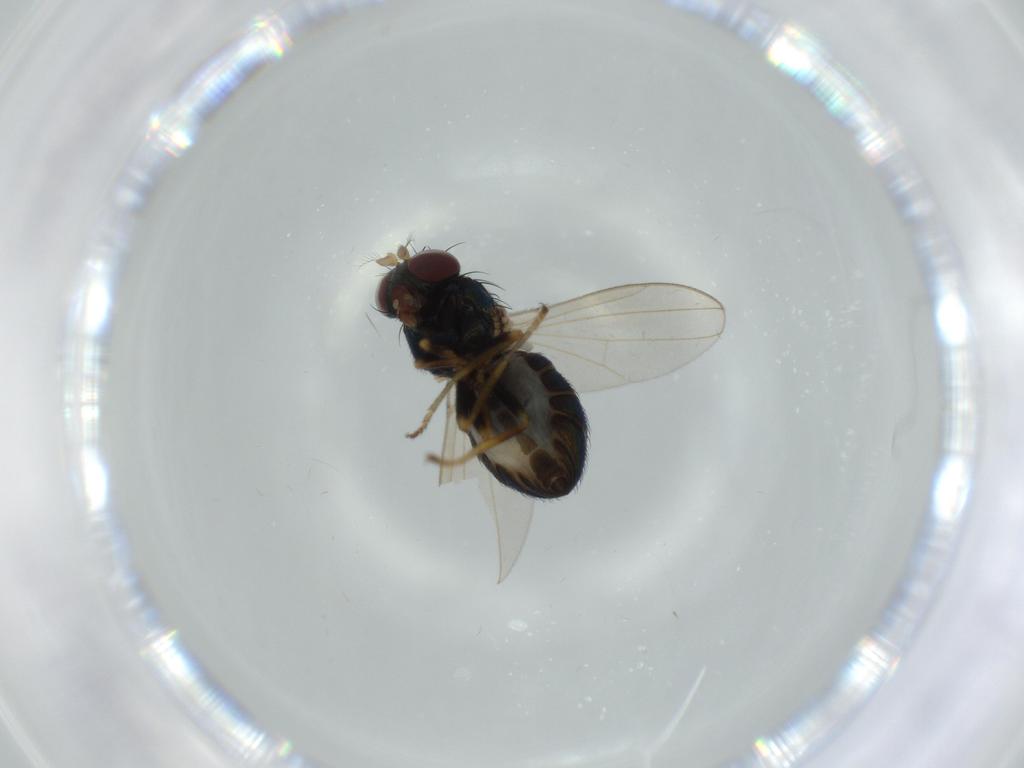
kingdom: Animalia
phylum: Arthropoda
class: Insecta
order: Diptera
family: Ephydridae
